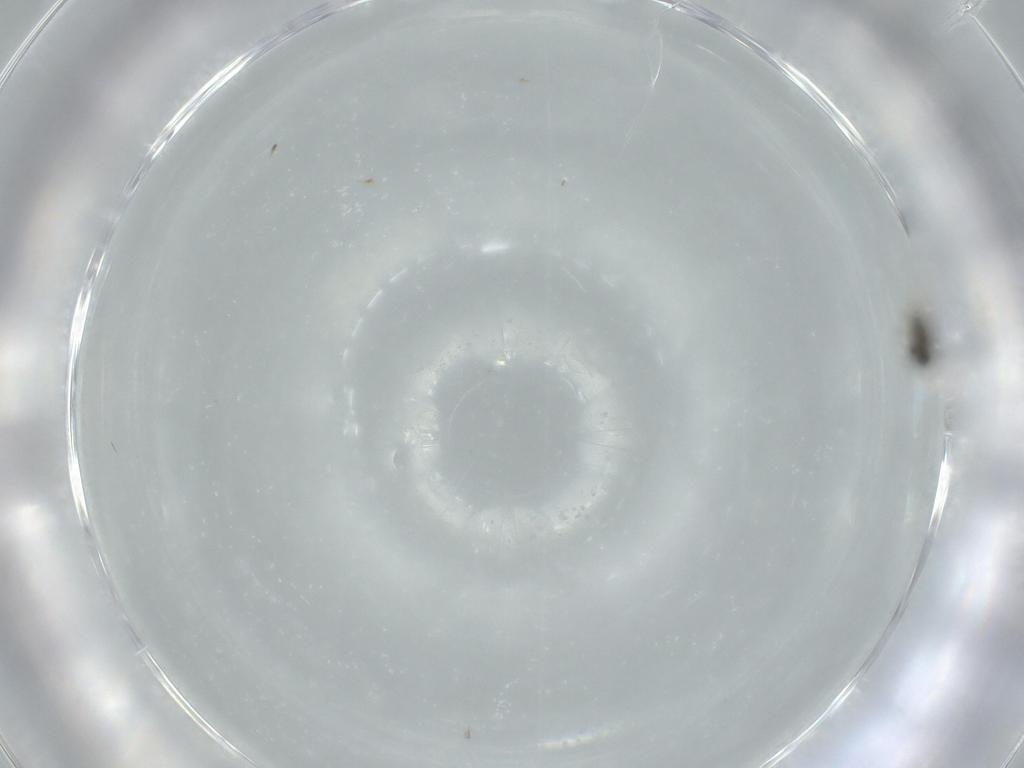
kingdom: Animalia
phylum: Arthropoda
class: Insecta
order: Hymenoptera
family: Scelionidae
